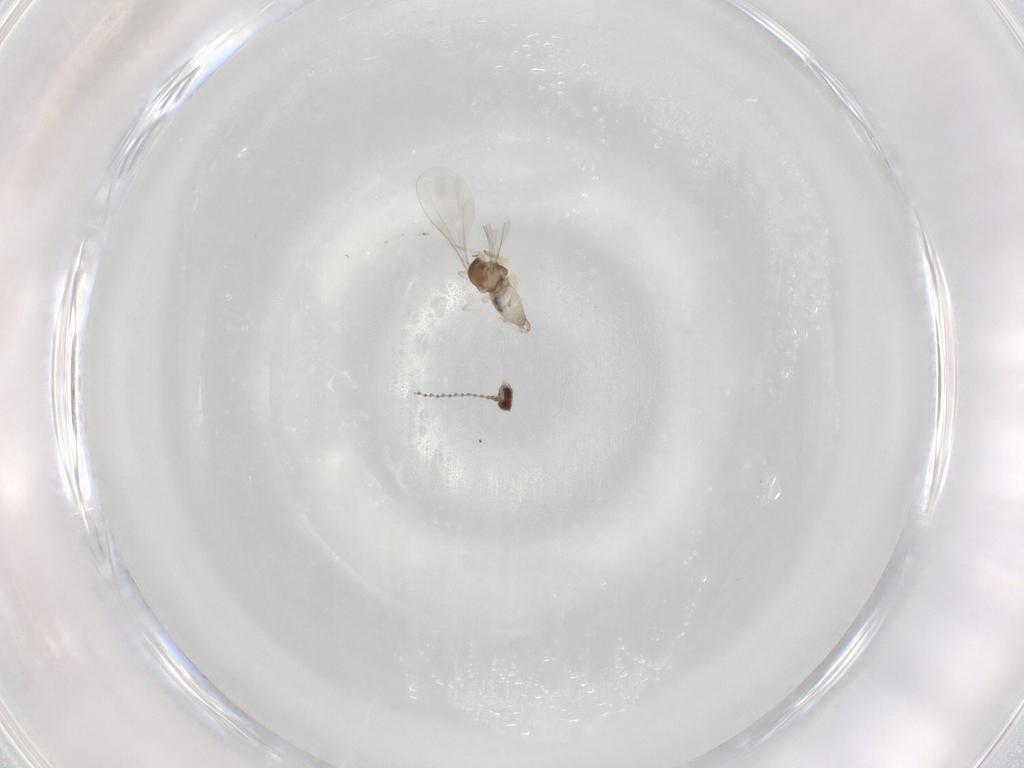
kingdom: Animalia
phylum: Arthropoda
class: Insecta
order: Diptera
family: Cecidomyiidae
